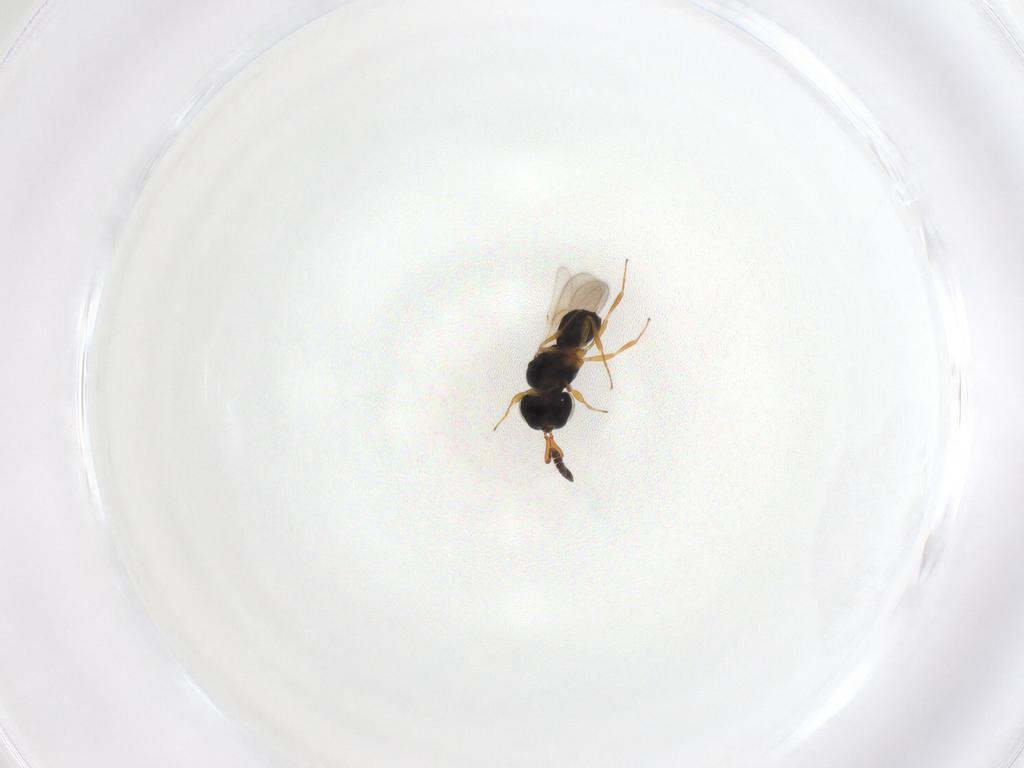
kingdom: Animalia
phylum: Arthropoda
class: Insecta
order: Hymenoptera
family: Scelionidae
